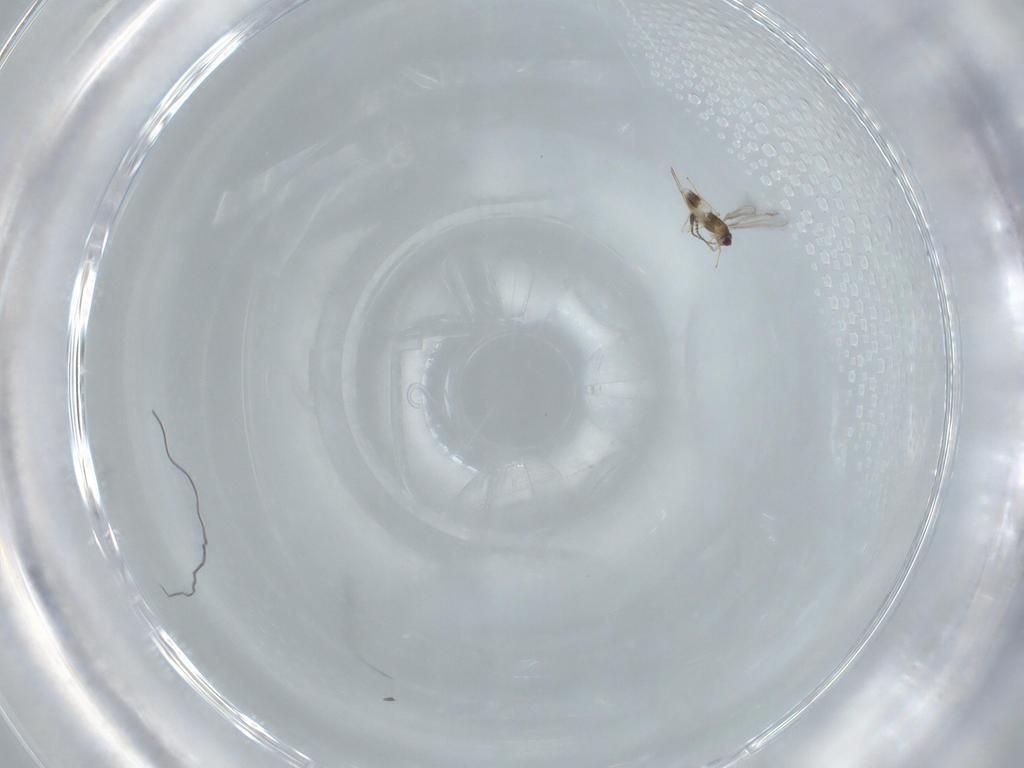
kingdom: Animalia
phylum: Arthropoda
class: Insecta
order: Hymenoptera
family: Mymaridae
